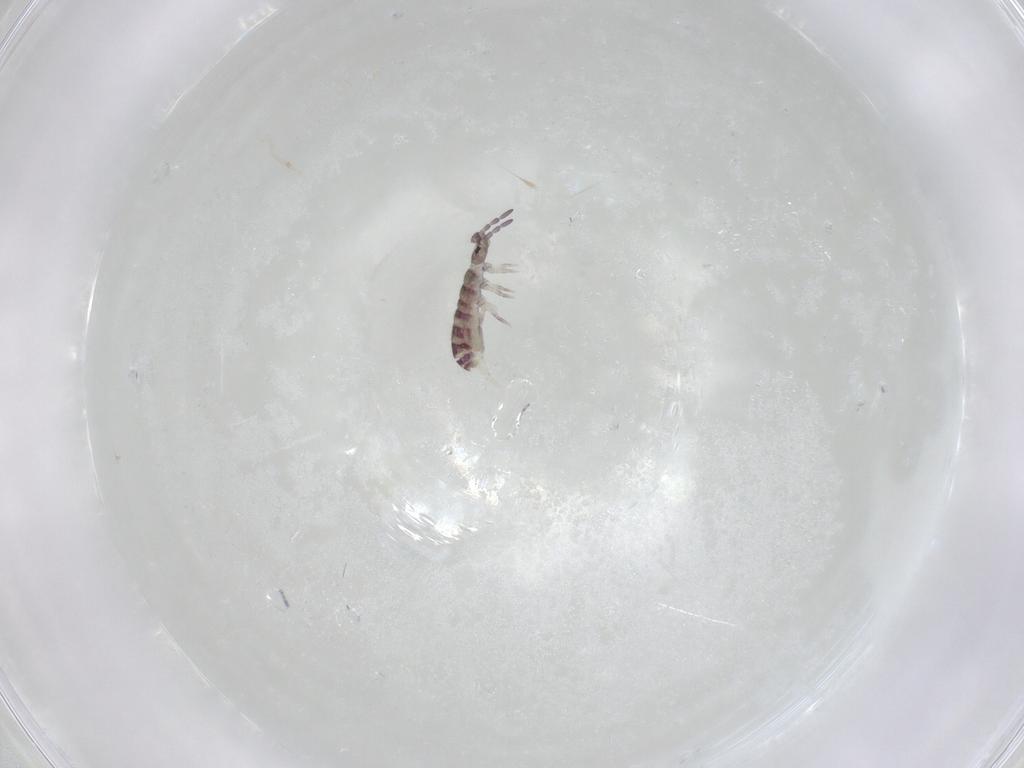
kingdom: Animalia
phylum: Arthropoda
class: Collembola
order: Entomobryomorpha
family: Isotomidae
